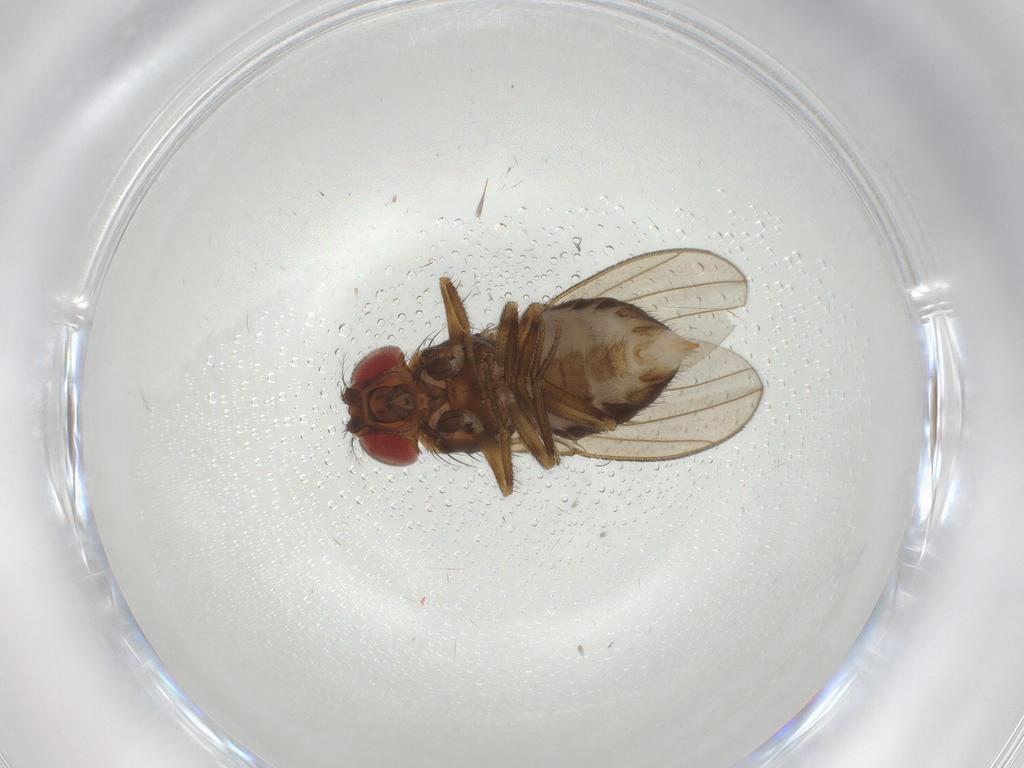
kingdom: Animalia
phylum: Arthropoda
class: Insecta
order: Diptera
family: Drosophilidae
